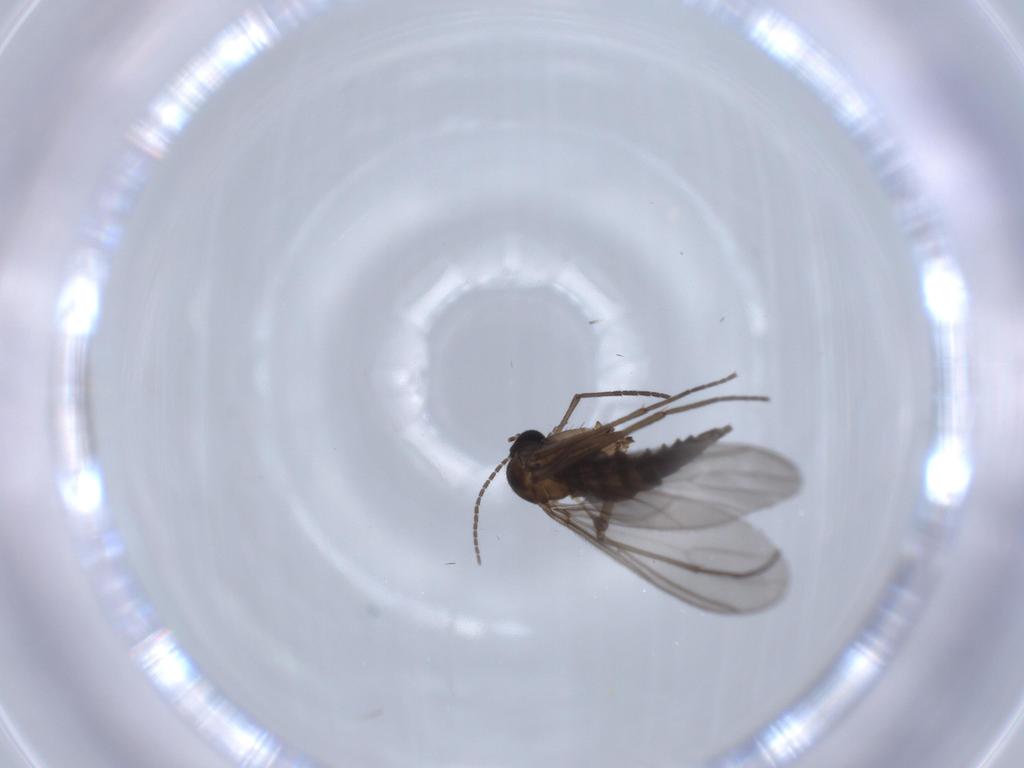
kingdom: Animalia
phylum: Arthropoda
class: Insecta
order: Diptera
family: Sciaridae
